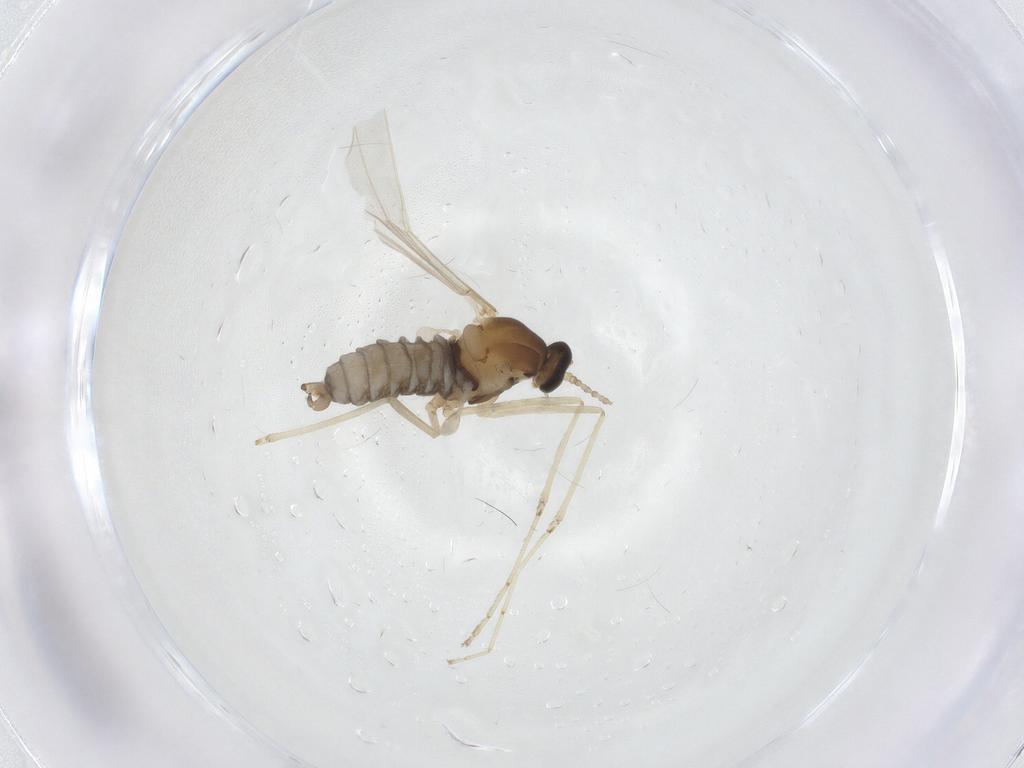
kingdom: Animalia
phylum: Arthropoda
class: Insecta
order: Diptera
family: Cecidomyiidae
